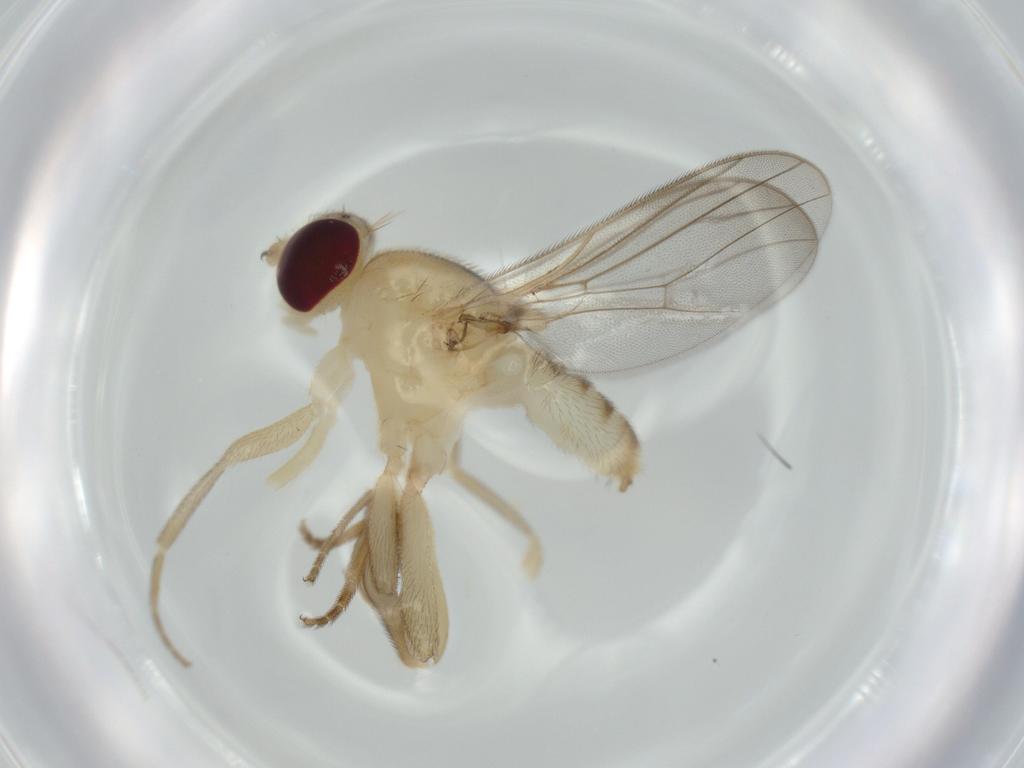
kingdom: Animalia
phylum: Arthropoda
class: Insecta
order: Diptera
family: Chloropidae
